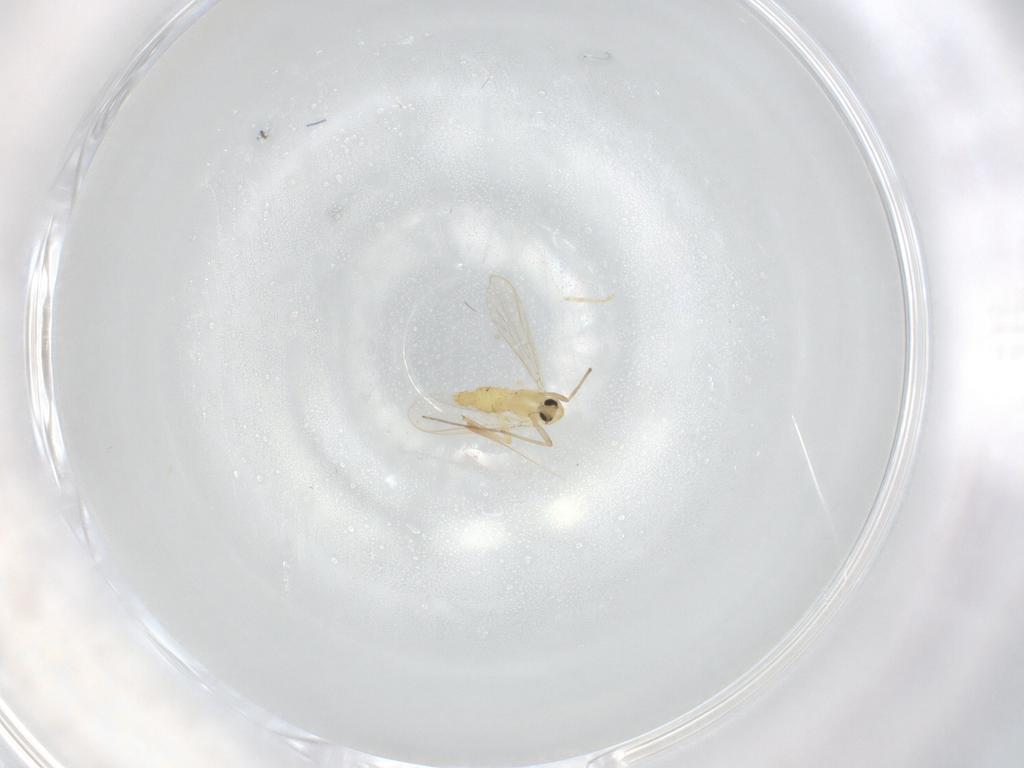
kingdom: Animalia
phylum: Arthropoda
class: Insecta
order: Diptera
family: Chironomidae
